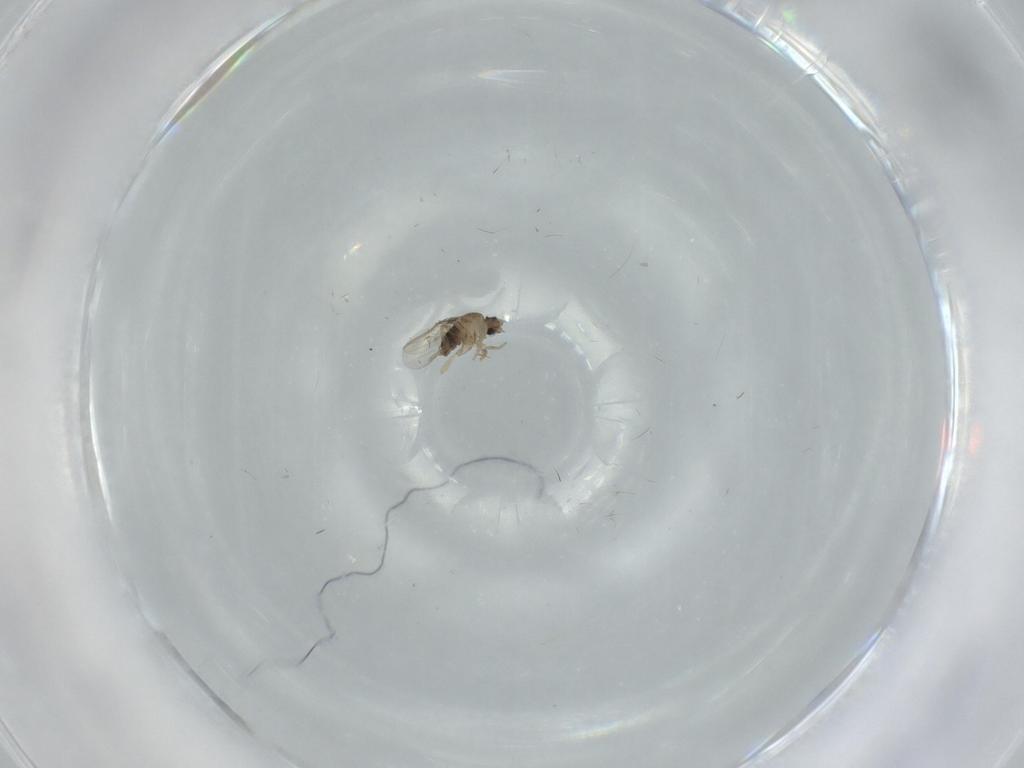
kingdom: Animalia
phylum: Arthropoda
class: Insecta
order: Diptera
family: Phoridae
